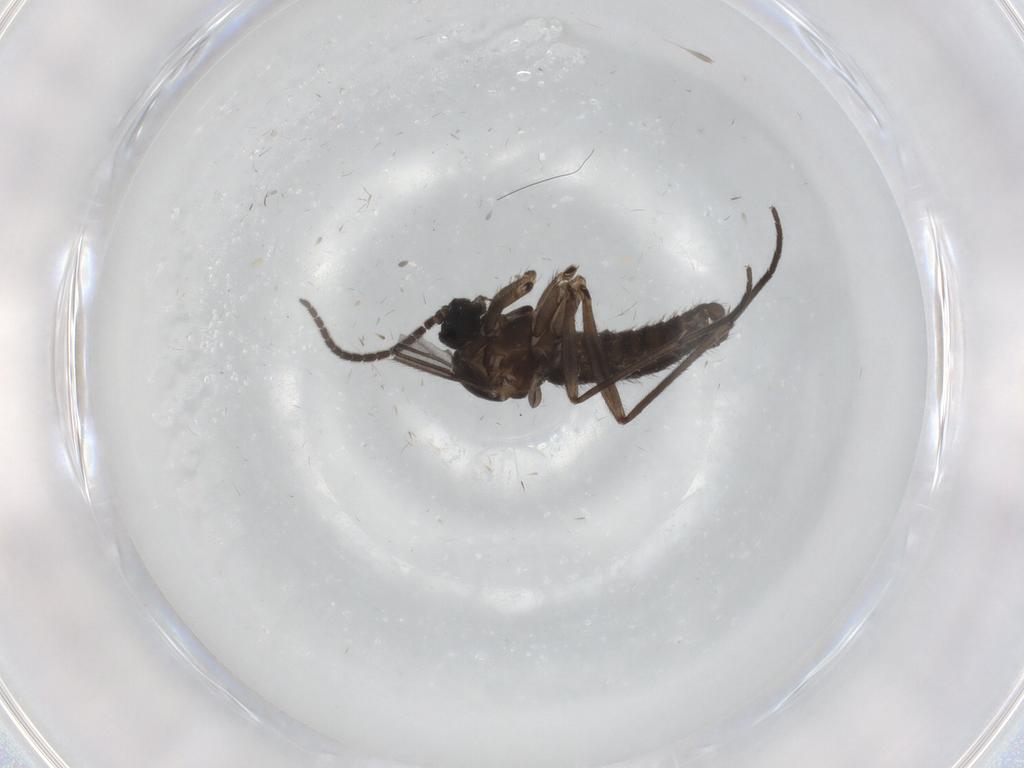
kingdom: Animalia
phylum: Arthropoda
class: Insecta
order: Diptera
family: Sciaridae
